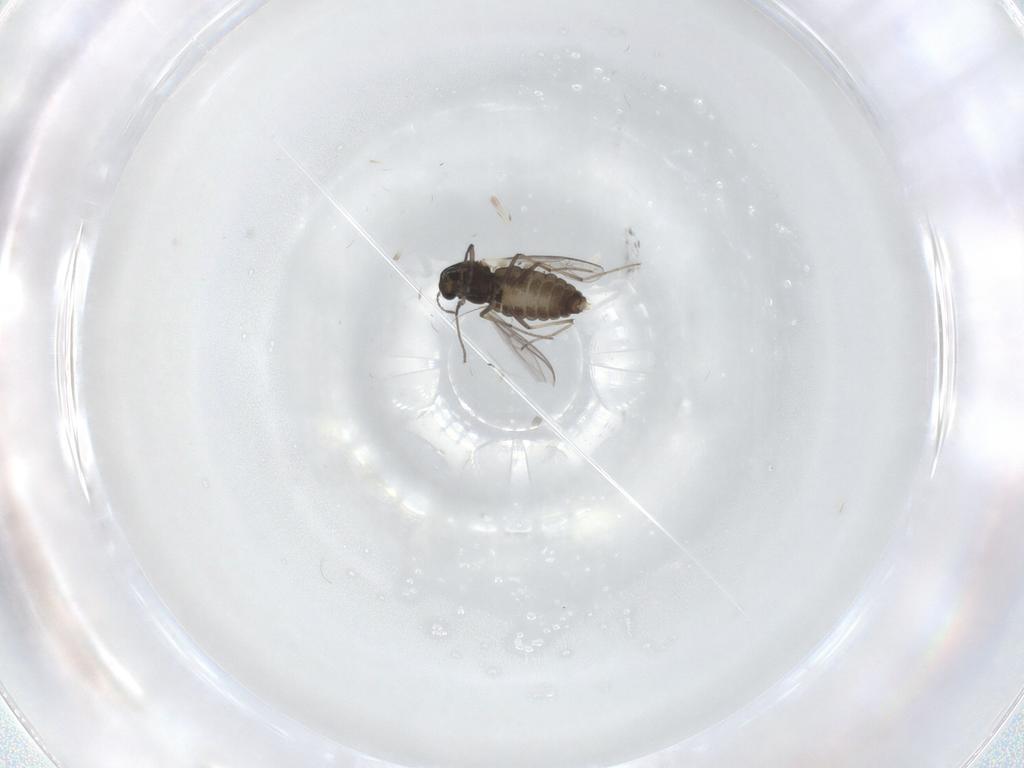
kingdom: Animalia
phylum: Arthropoda
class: Insecta
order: Diptera
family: Chironomidae
